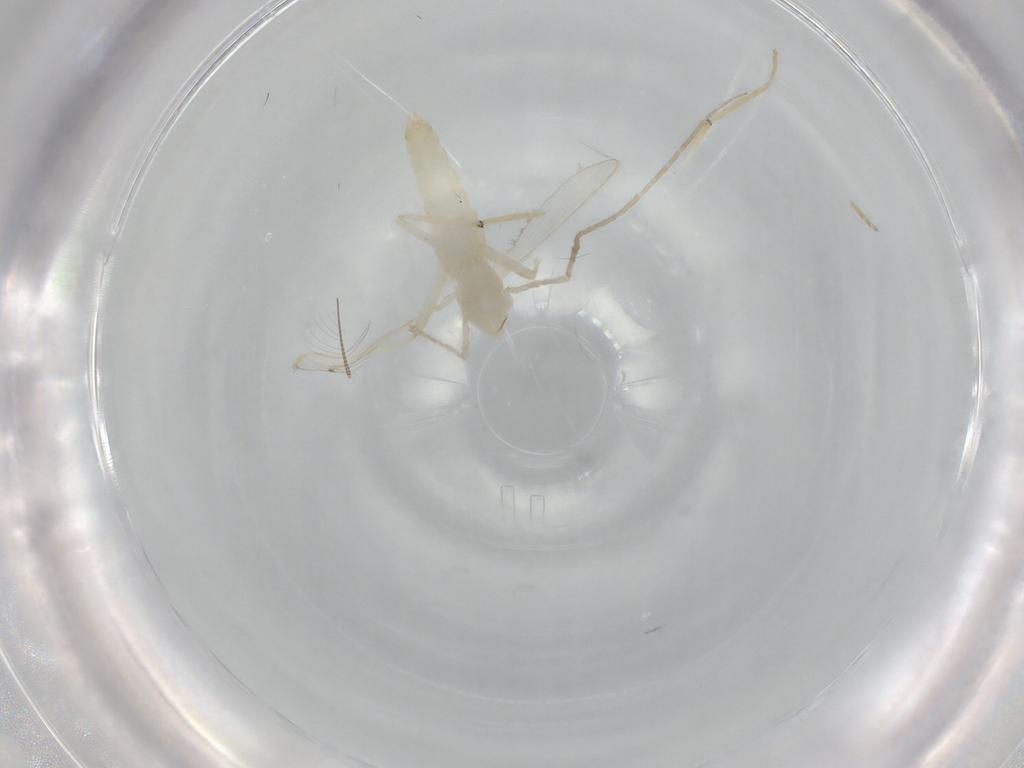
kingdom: Animalia
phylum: Arthropoda
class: Insecta
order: Diptera
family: Chironomidae
